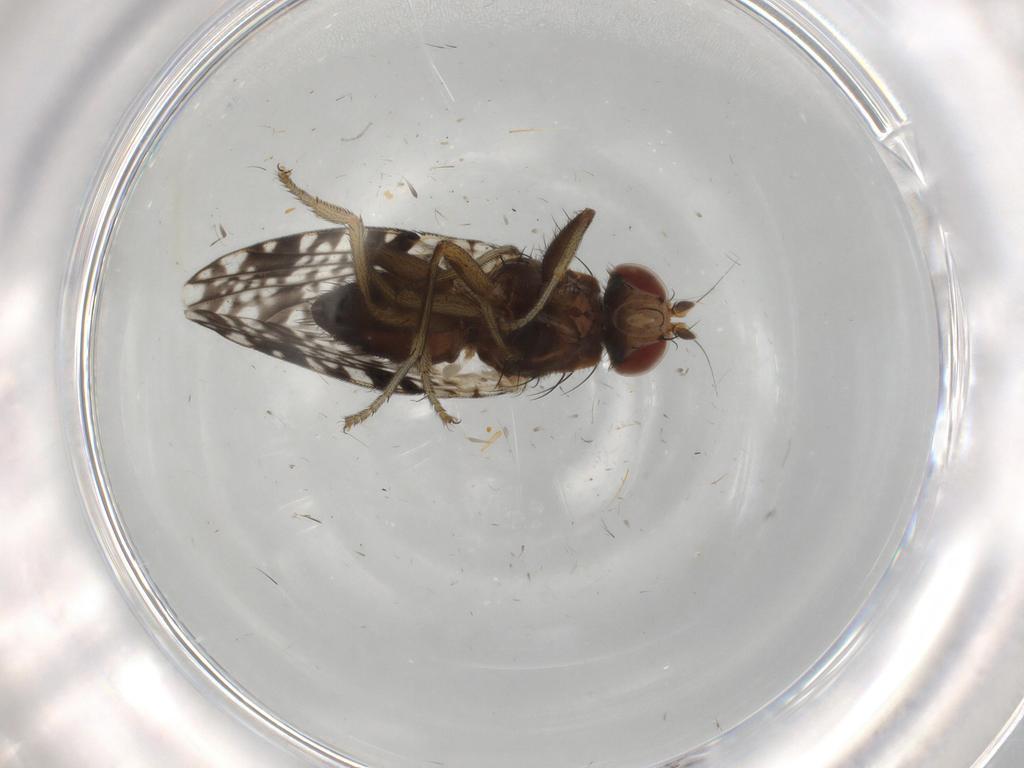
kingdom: Animalia
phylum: Arthropoda
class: Insecta
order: Diptera
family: Tephritidae
